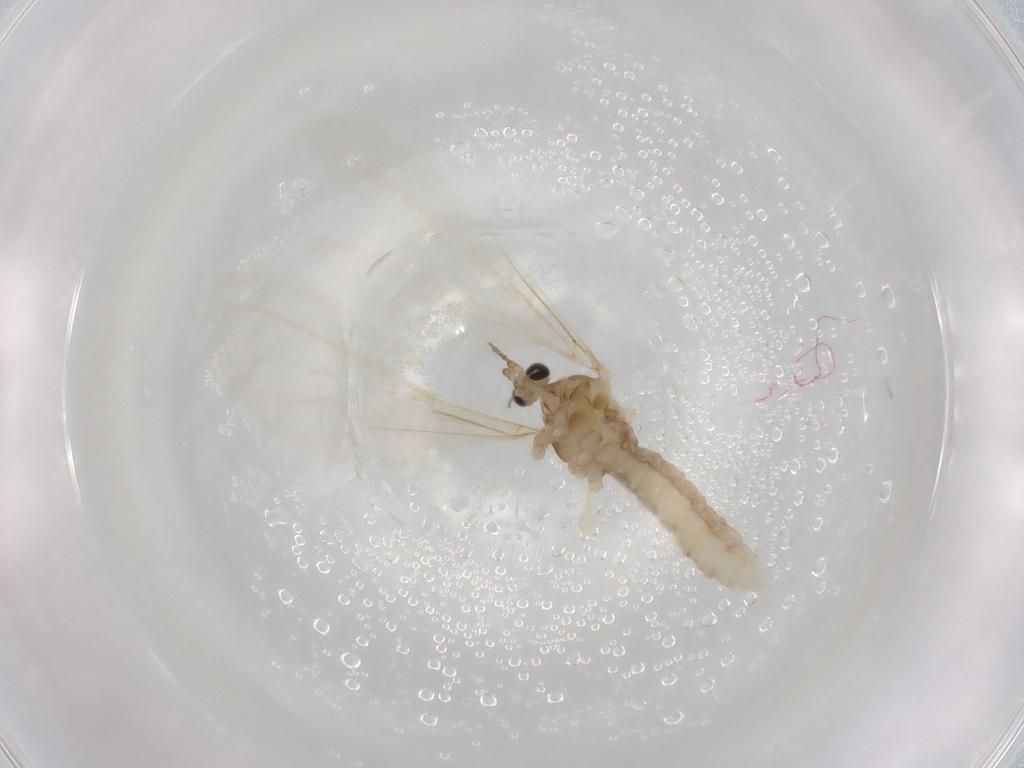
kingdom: Animalia
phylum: Arthropoda
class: Insecta
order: Diptera
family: Cecidomyiidae
